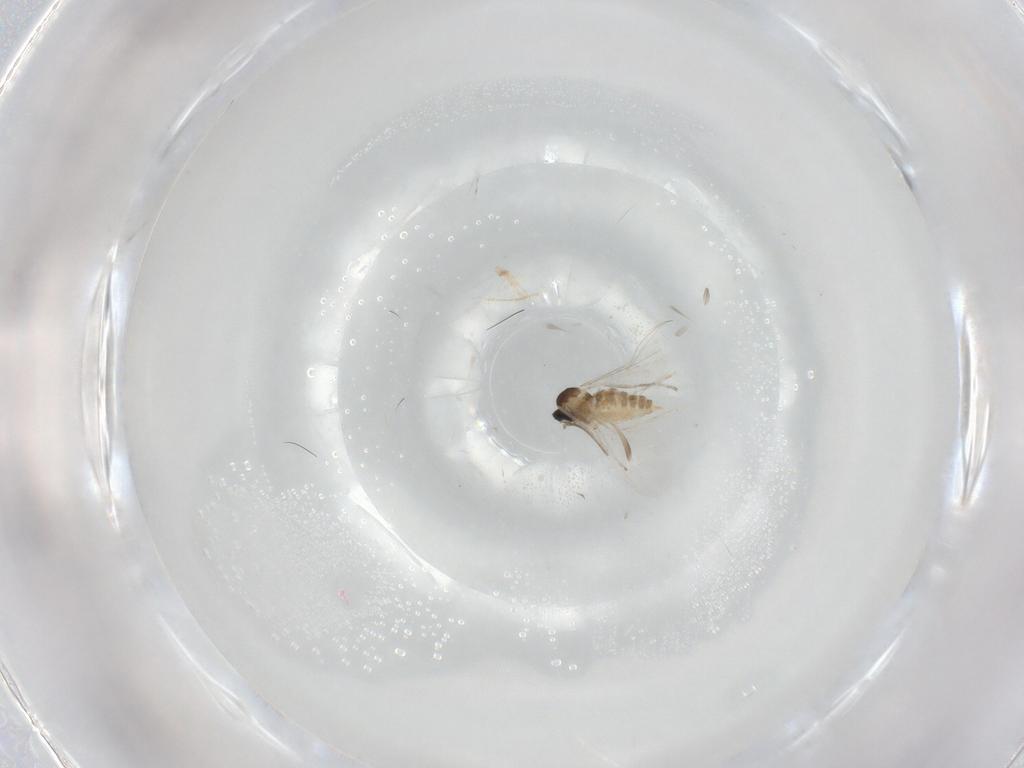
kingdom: Animalia
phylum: Arthropoda
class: Insecta
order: Diptera
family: Cecidomyiidae
